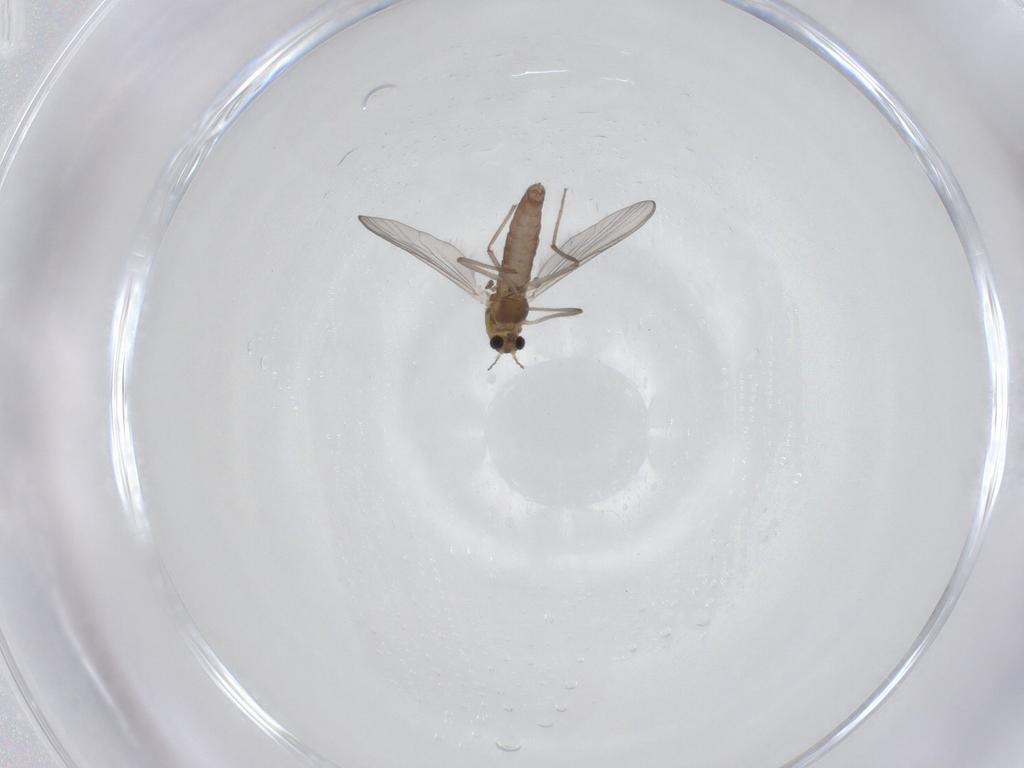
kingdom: Animalia
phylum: Arthropoda
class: Insecta
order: Diptera
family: Chironomidae
